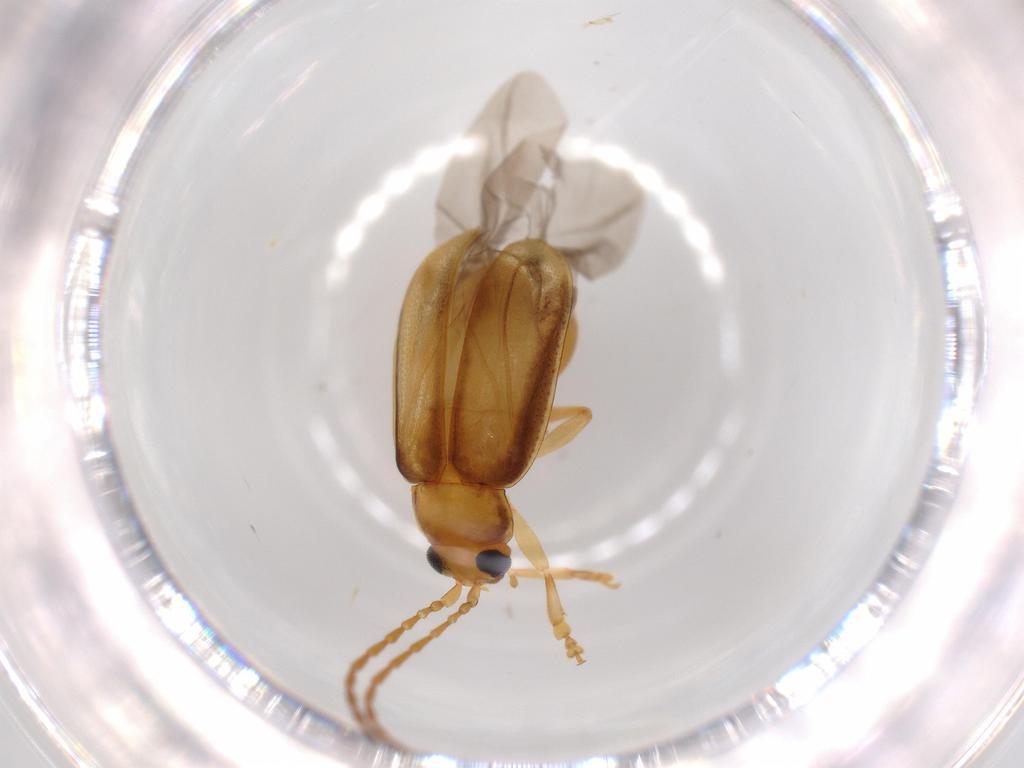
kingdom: Animalia
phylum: Arthropoda
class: Insecta
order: Coleoptera
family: Chrysomelidae
